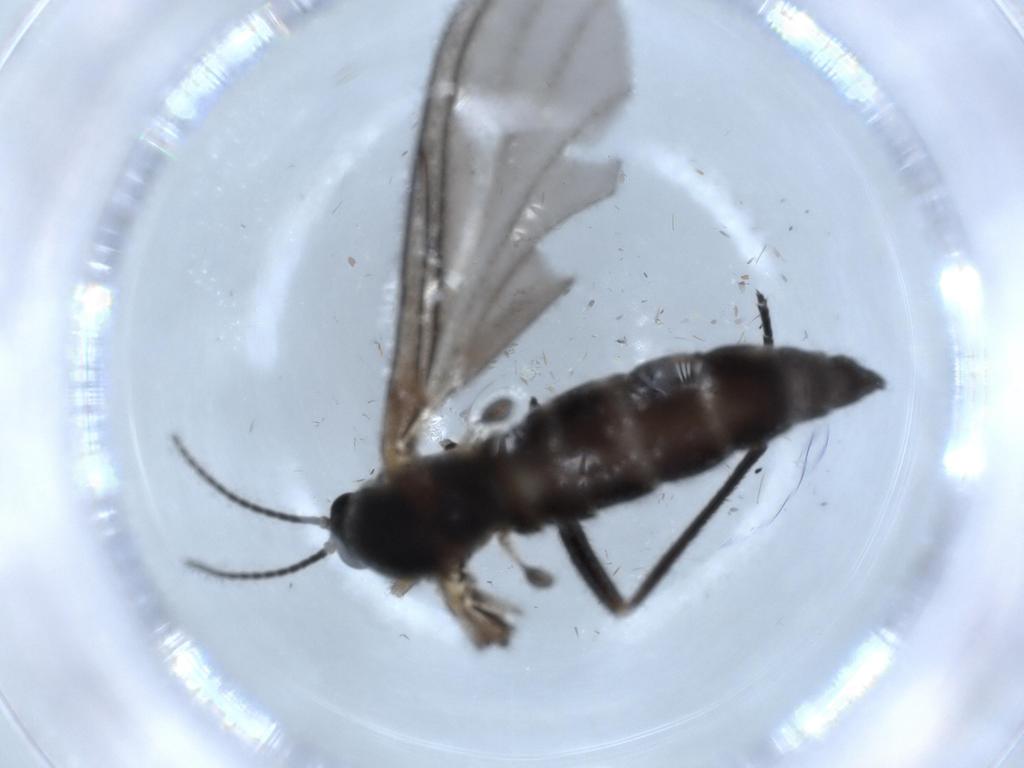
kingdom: Animalia
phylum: Arthropoda
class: Insecta
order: Diptera
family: Sciaridae
